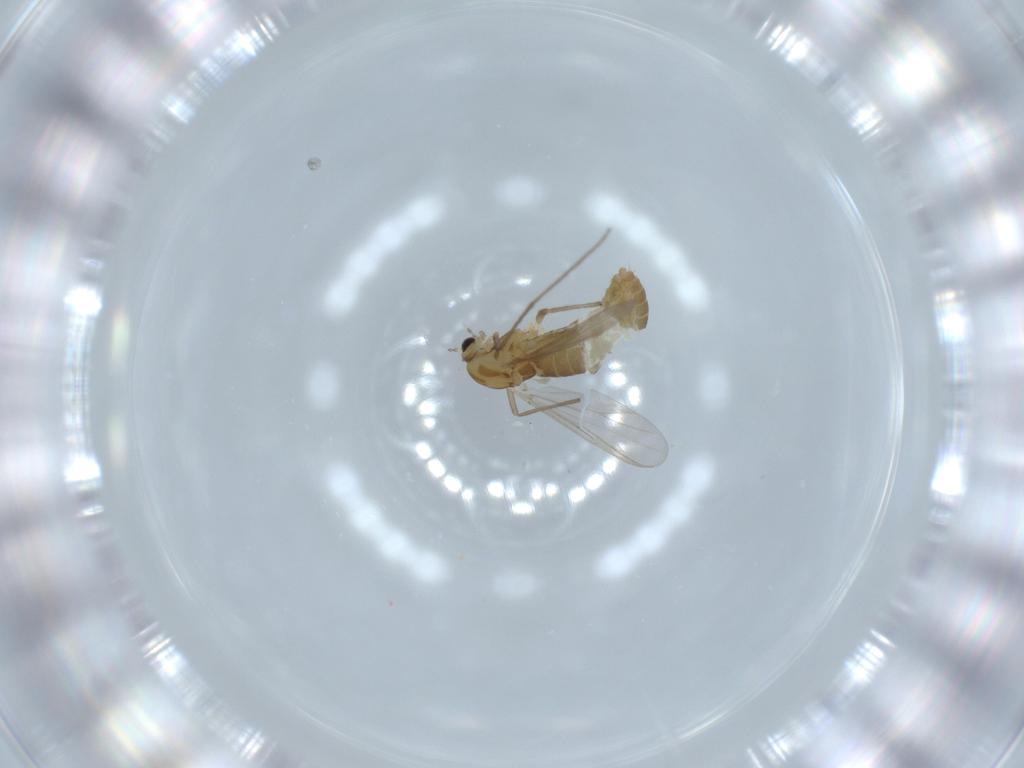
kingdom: Animalia
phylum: Arthropoda
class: Insecta
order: Diptera
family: Chironomidae
